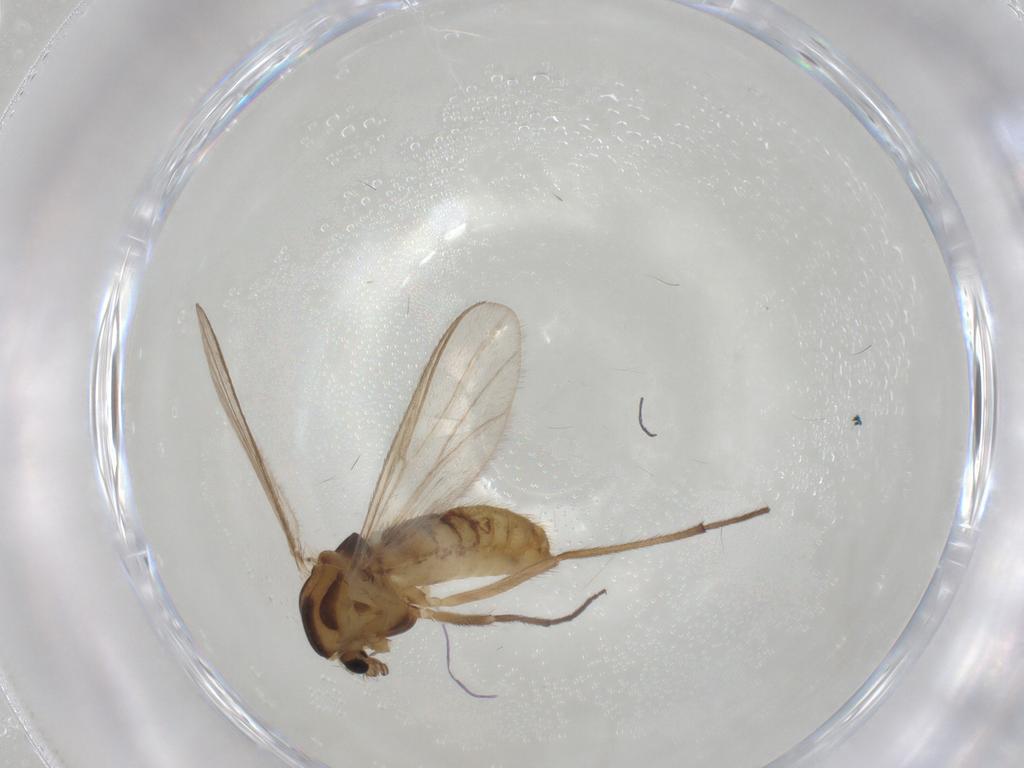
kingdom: Animalia
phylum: Arthropoda
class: Insecta
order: Diptera
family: Chironomidae
